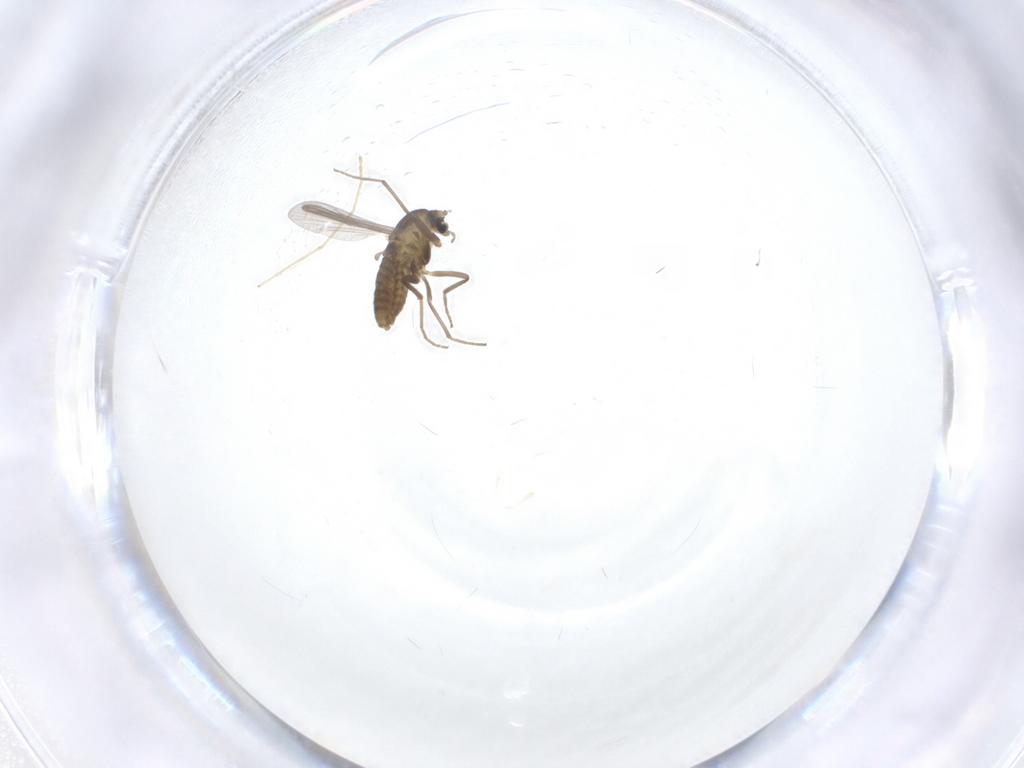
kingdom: Animalia
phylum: Arthropoda
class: Insecta
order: Diptera
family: Chironomidae
